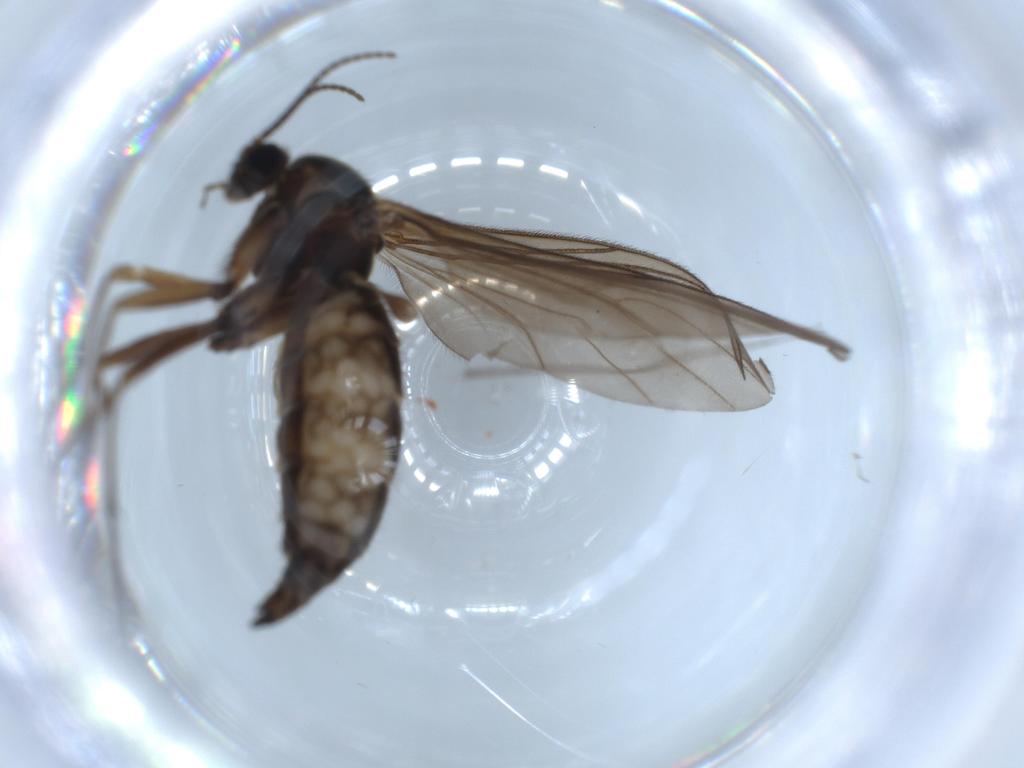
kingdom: Animalia
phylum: Arthropoda
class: Insecta
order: Diptera
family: Sciaridae
